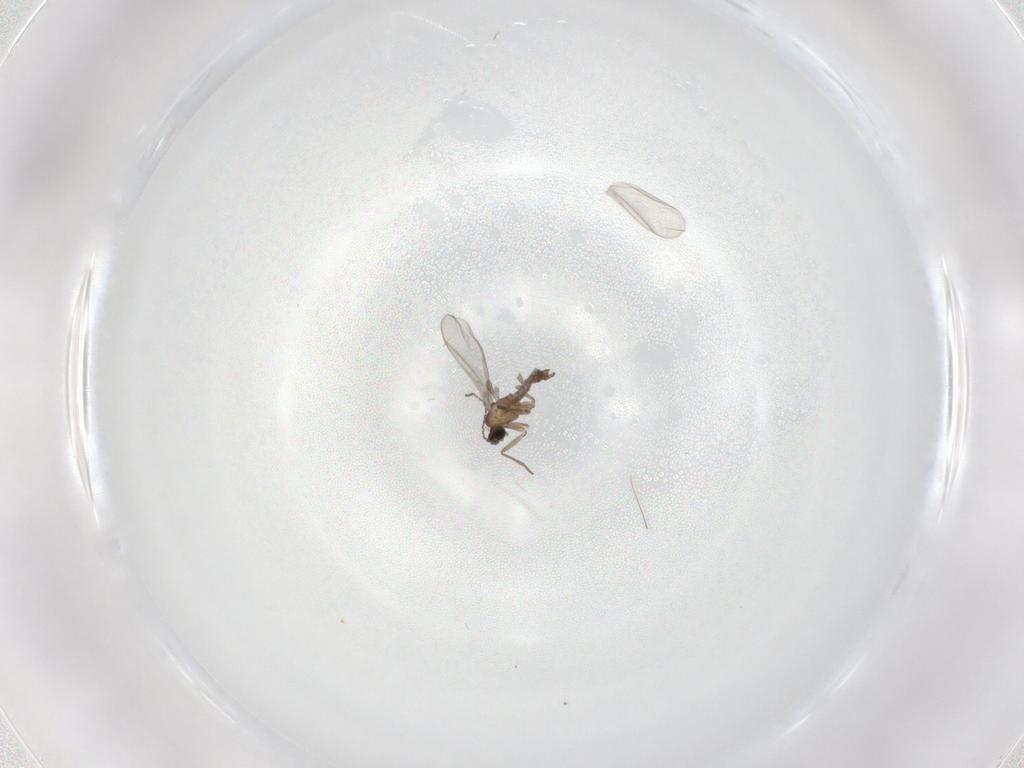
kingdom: Animalia
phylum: Arthropoda
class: Insecta
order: Diptera
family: Sciaridae
